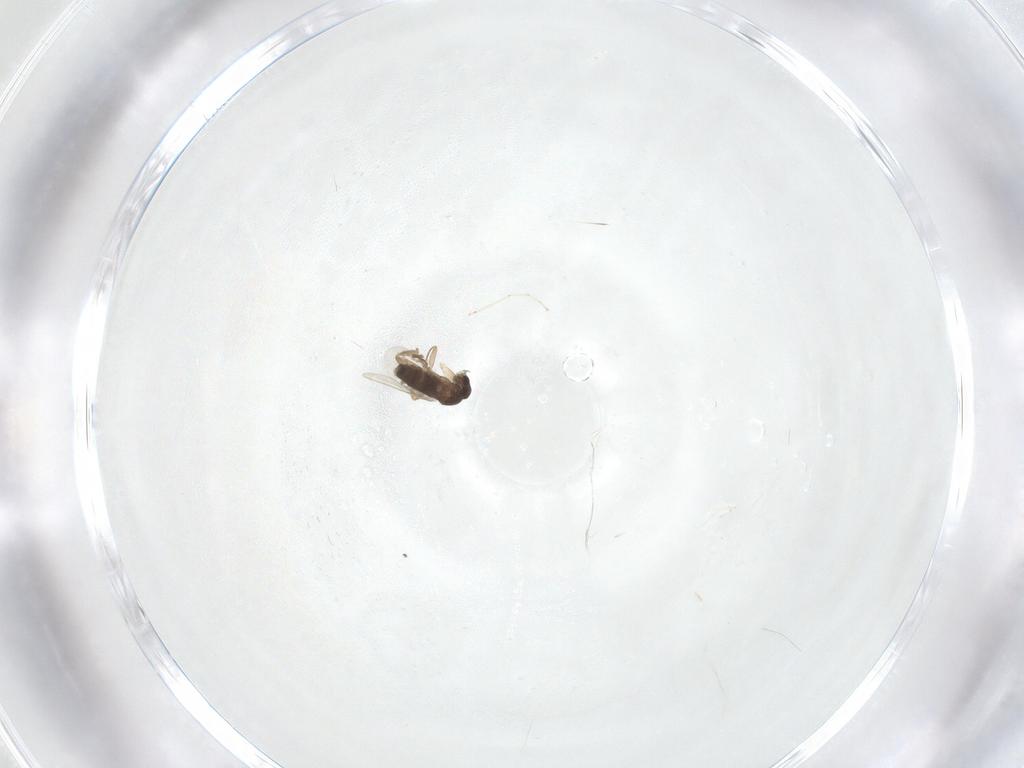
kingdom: Animalia
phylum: Arthropoda
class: Insecta
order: Diptera
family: Phoridae
